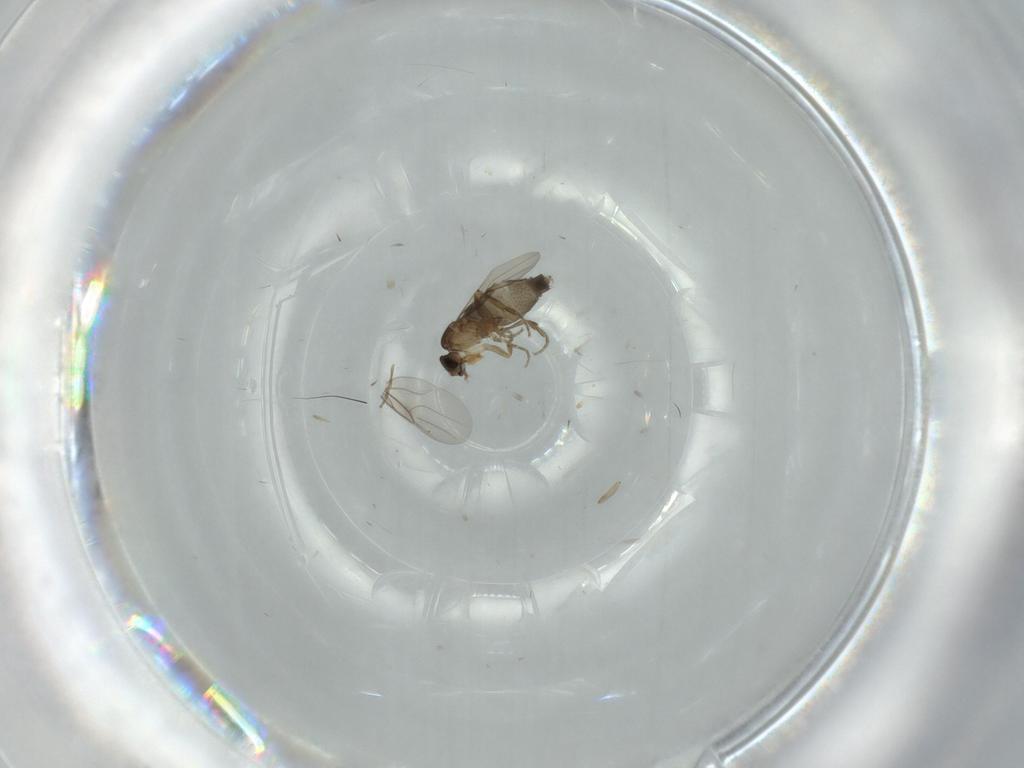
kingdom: Animalia
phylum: Arthropoda
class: Insecta
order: Diptera
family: Phoridae
